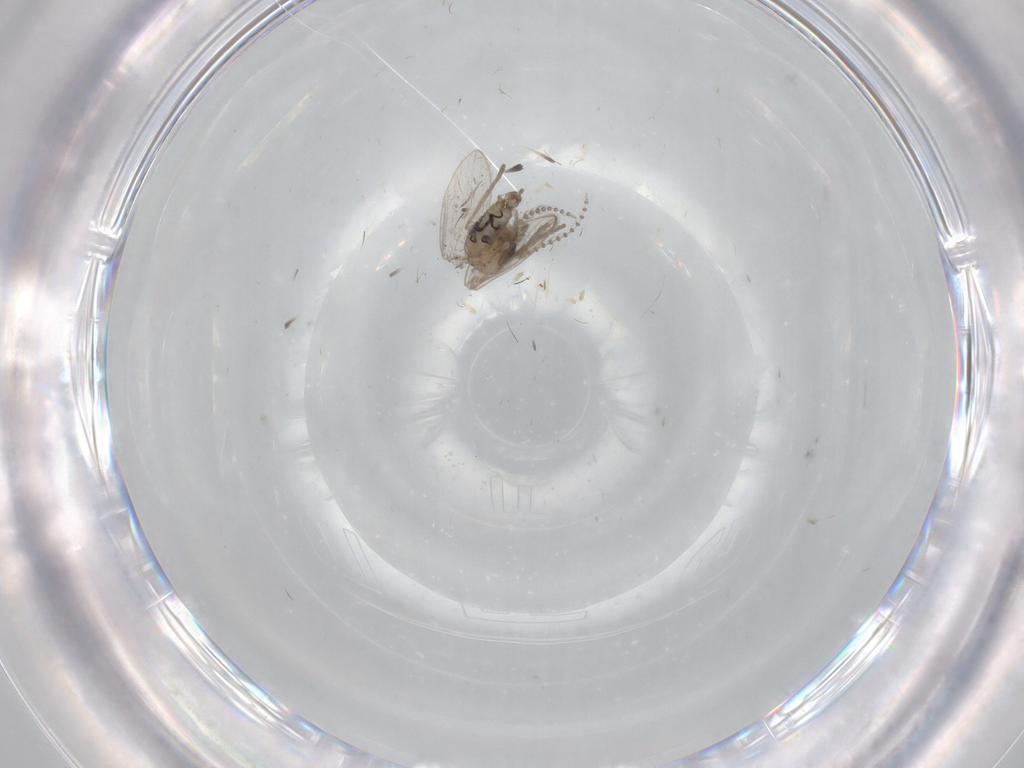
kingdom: Animalia
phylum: Arthropoda
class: Insecta
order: Diptera
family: Psychodidae
